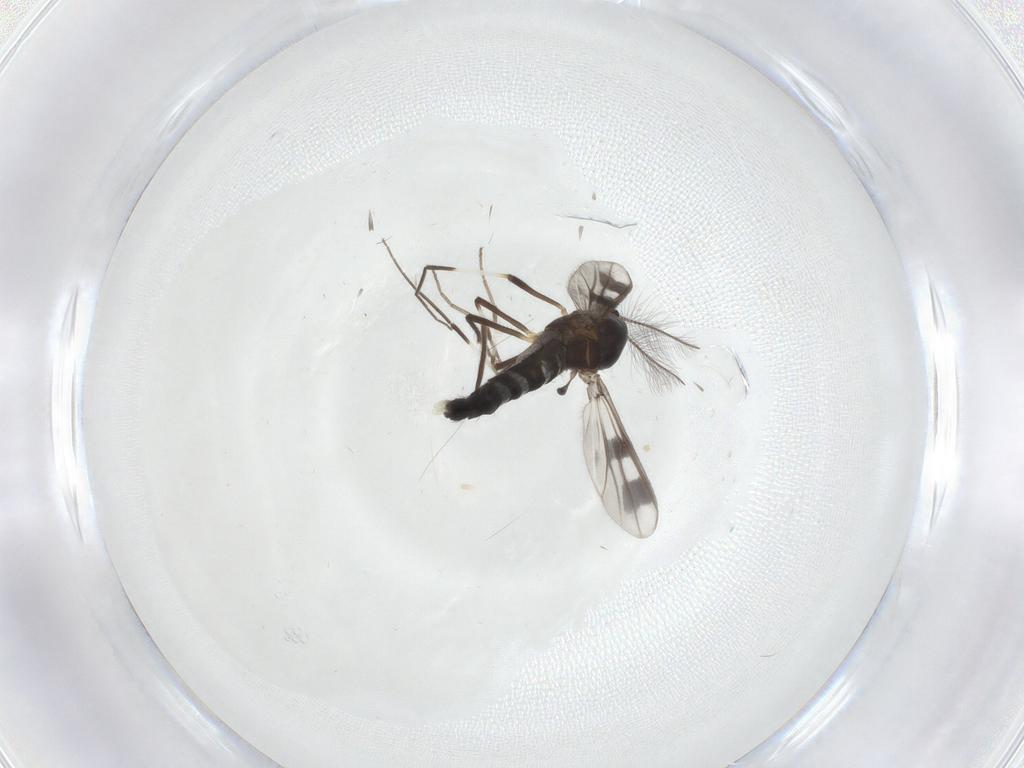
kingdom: Animalia
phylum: Arthropoda
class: Insecta
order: Diptera
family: Chironomidae
